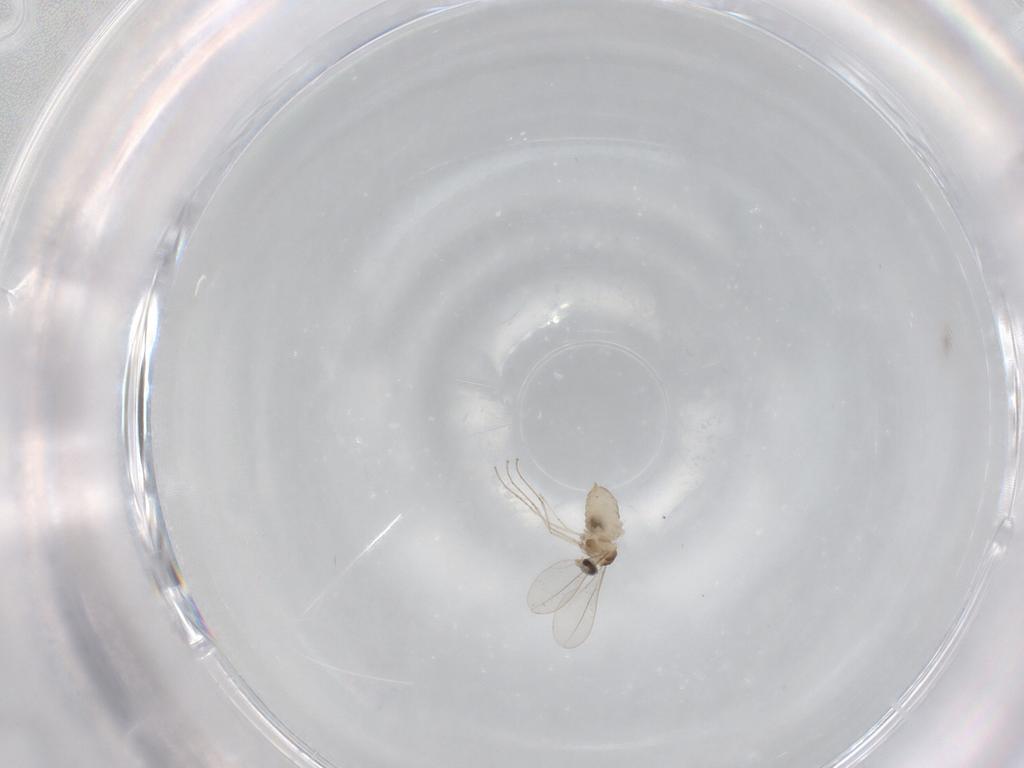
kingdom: Animalia
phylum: Arthropoda
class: Insecta
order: Diptera
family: Cecidomyiidae
